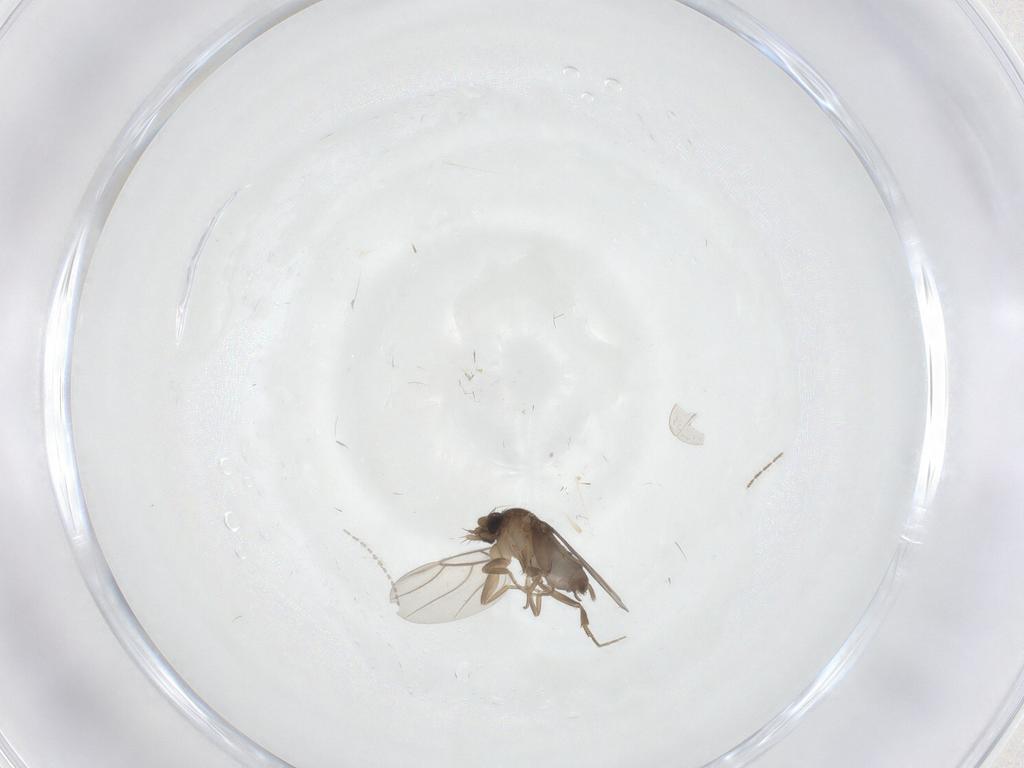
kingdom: Animalia
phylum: Arthropoda
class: Insecta
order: Diptera
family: Ceratopogonidae
